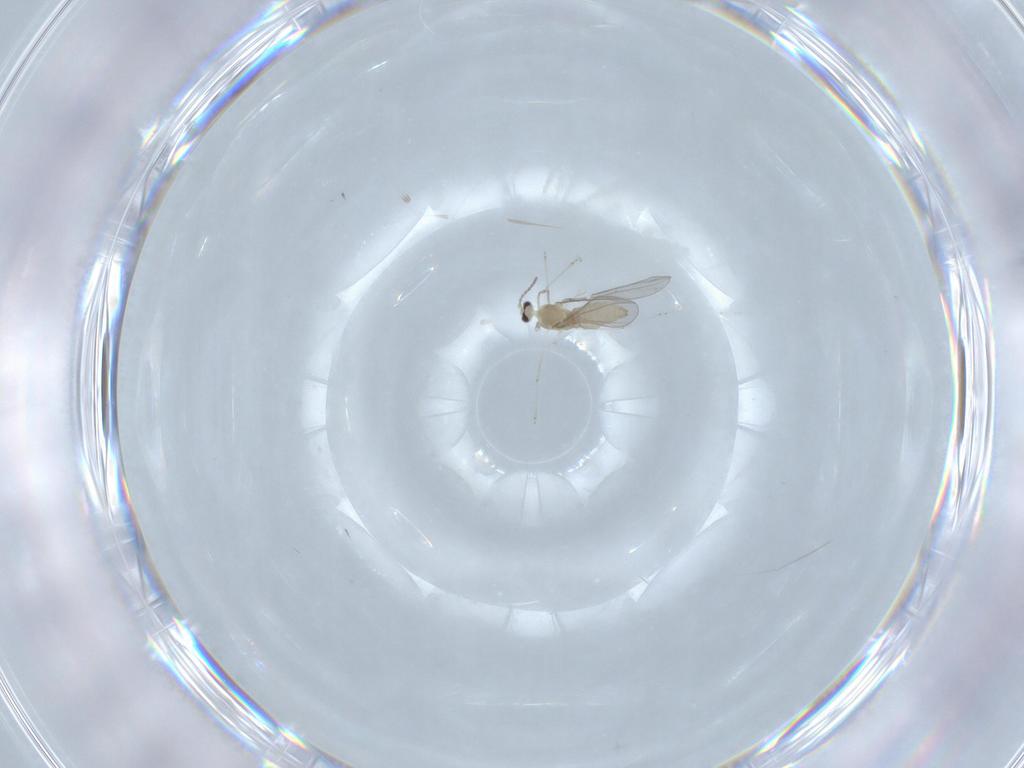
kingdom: Animalia
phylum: Arthropoda
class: Insecta
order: Diptera
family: Cecidomyiidae
